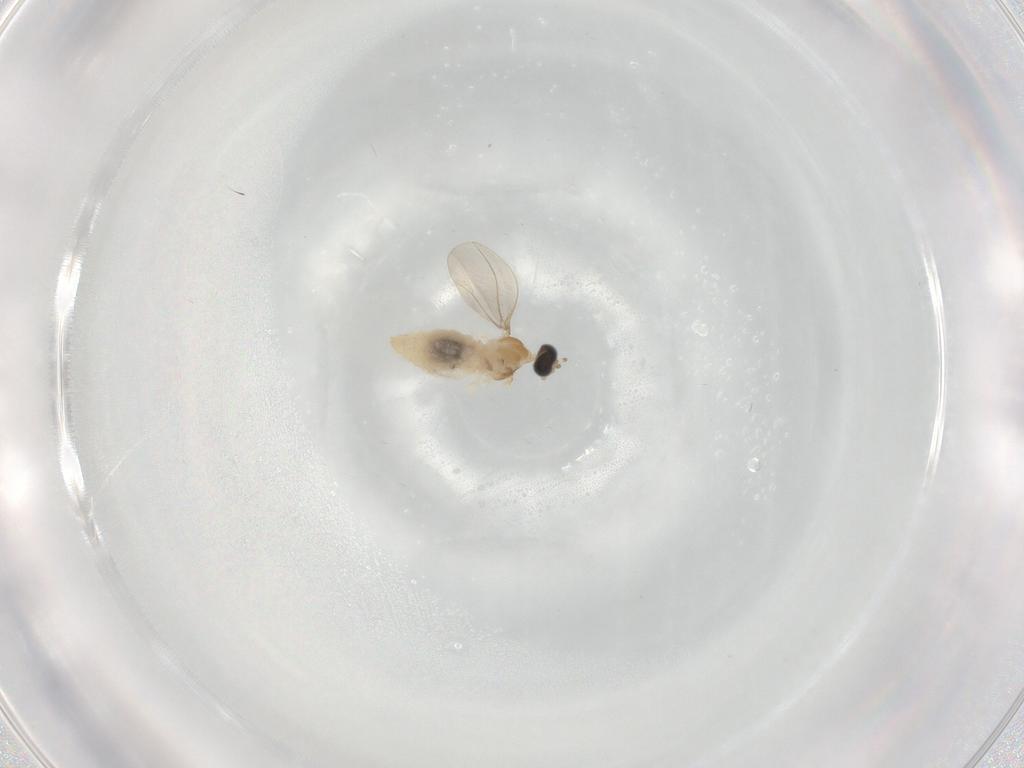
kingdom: Animalia
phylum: Arthropoda
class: Insecta
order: Diptera
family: Cecidomyiidae
